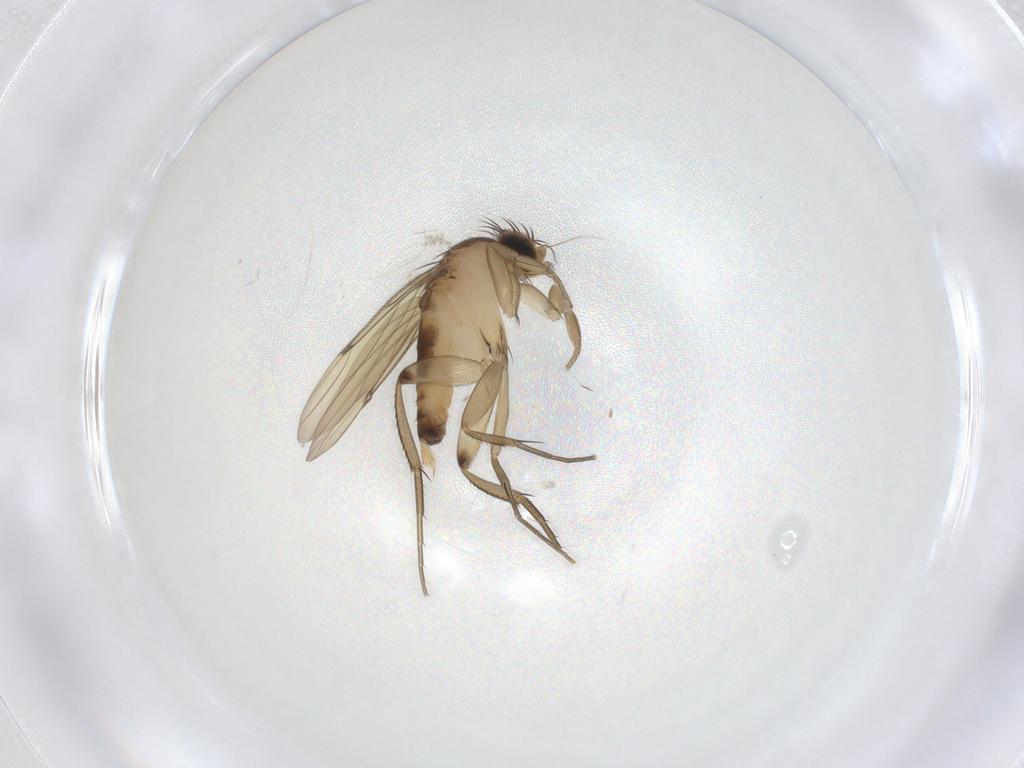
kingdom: Animalia
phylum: Arthropoda
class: Insecta
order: Diptera
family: Phoridae
